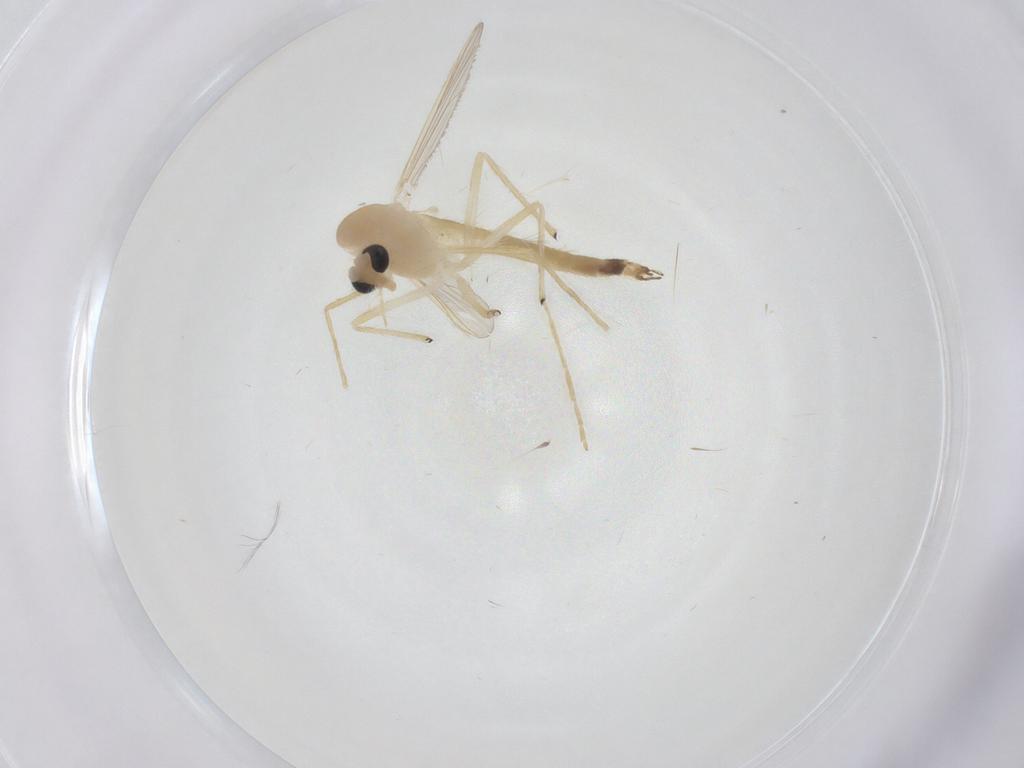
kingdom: Animalia
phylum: Arthropoda
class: Insecta
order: Diptera
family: Chironomidae
